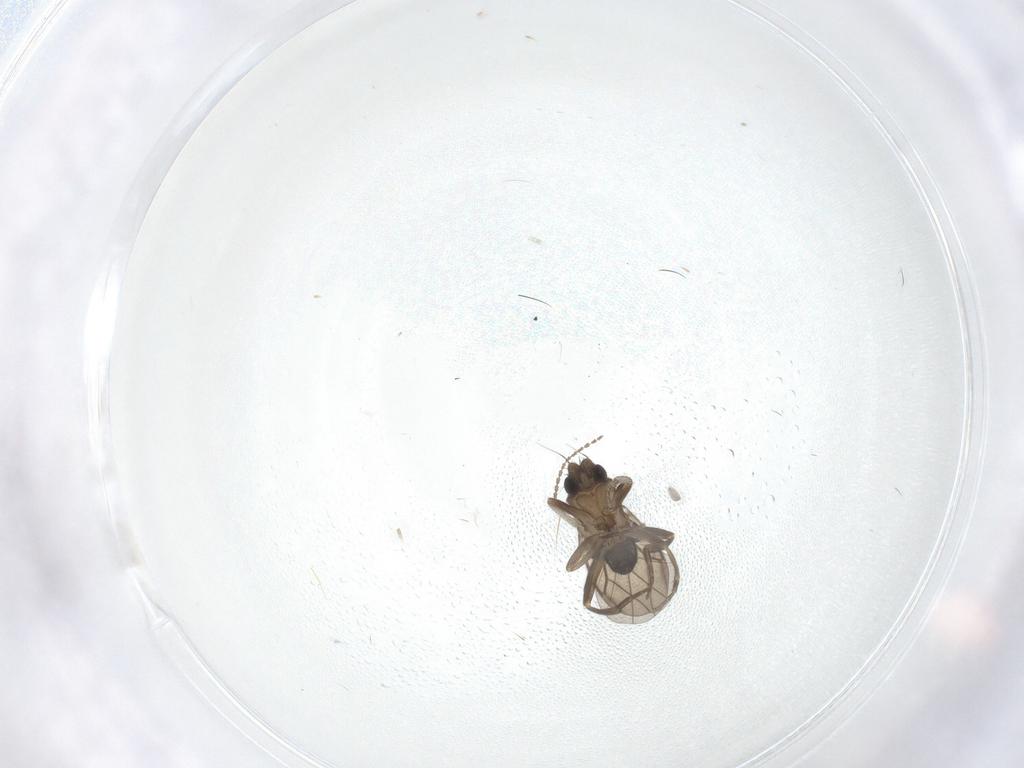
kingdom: Animalia
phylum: Arthropoda
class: Insecta
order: Diptera
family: Cecidomyiidae
